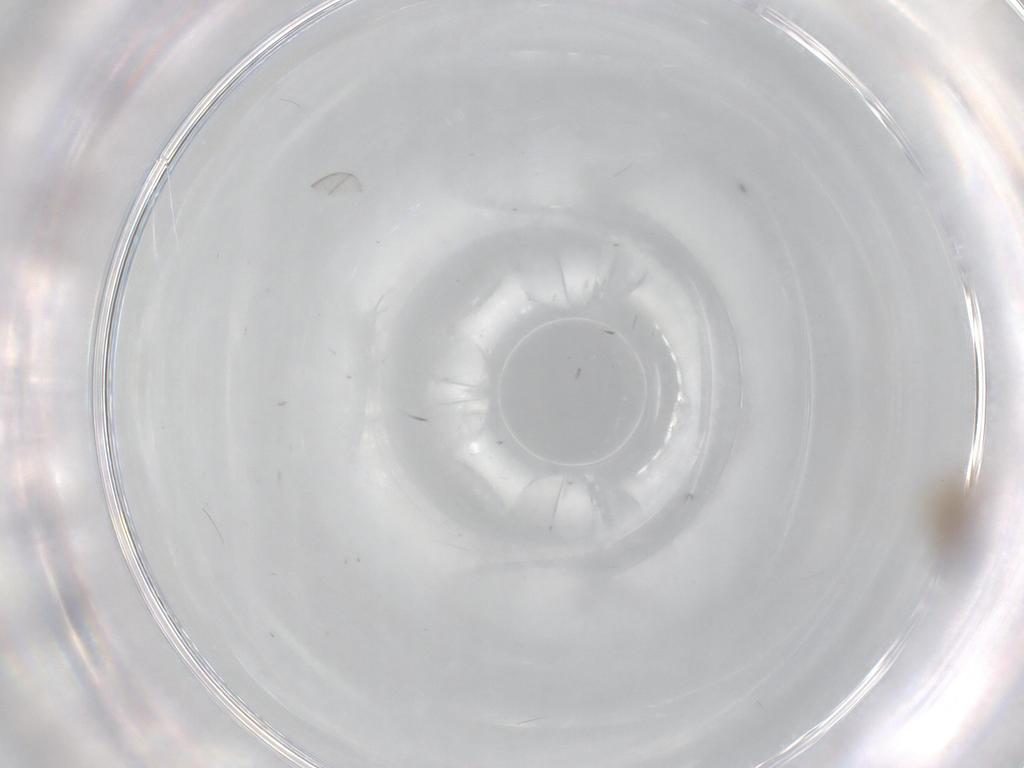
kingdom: Animalia
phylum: Arthropoda
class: Insecta
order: Diptera
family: Cecidomyiidae
